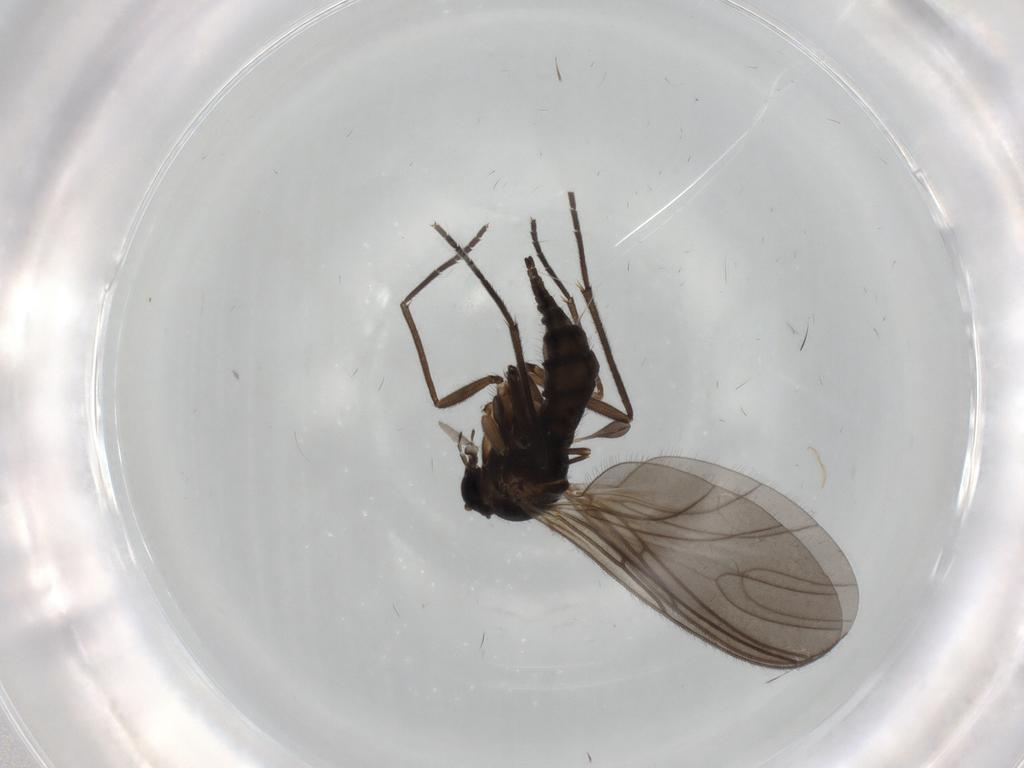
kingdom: Animalia
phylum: Arthropoda
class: Insecta
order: Diptera
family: Sciaridae
